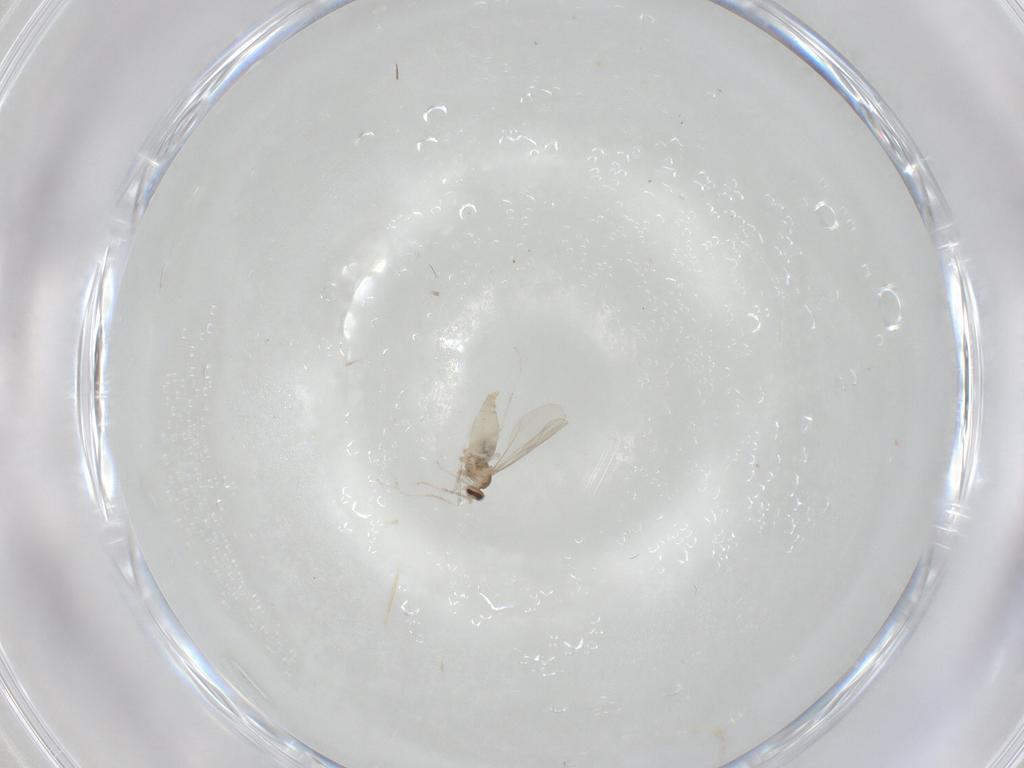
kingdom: Animalia
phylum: Arthropoda
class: Insecta
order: Diptera
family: Cecidomyiidae
